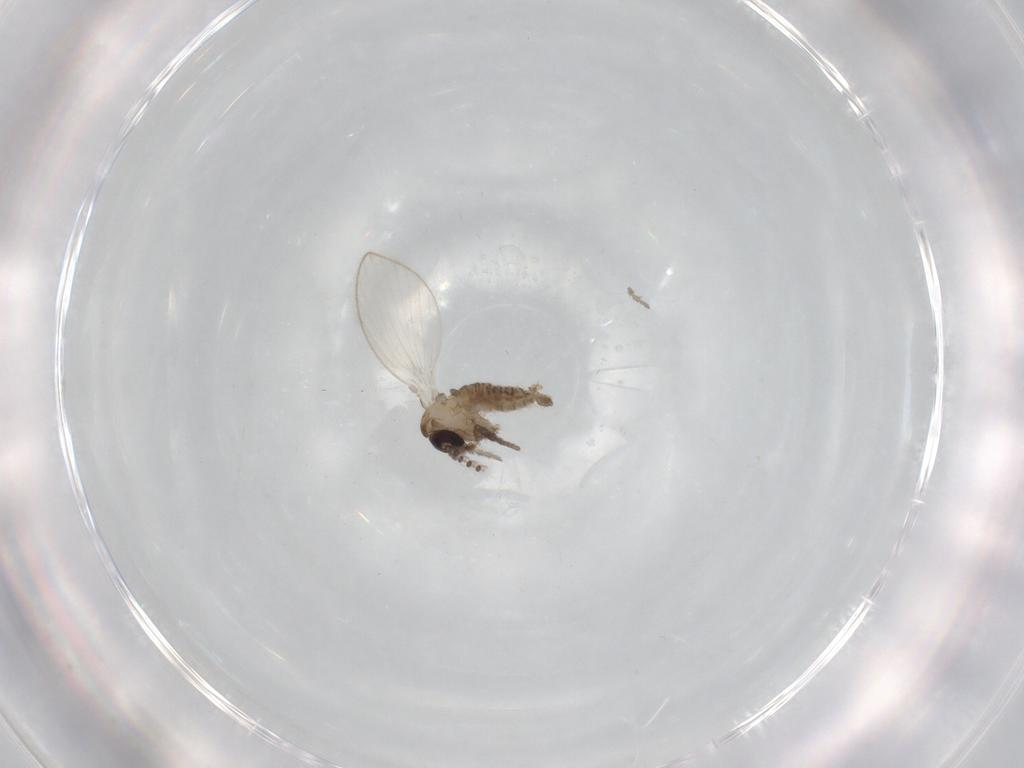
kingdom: Animalia
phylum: Arthropoda
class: Insecta
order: Diptera
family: Psychodidae
